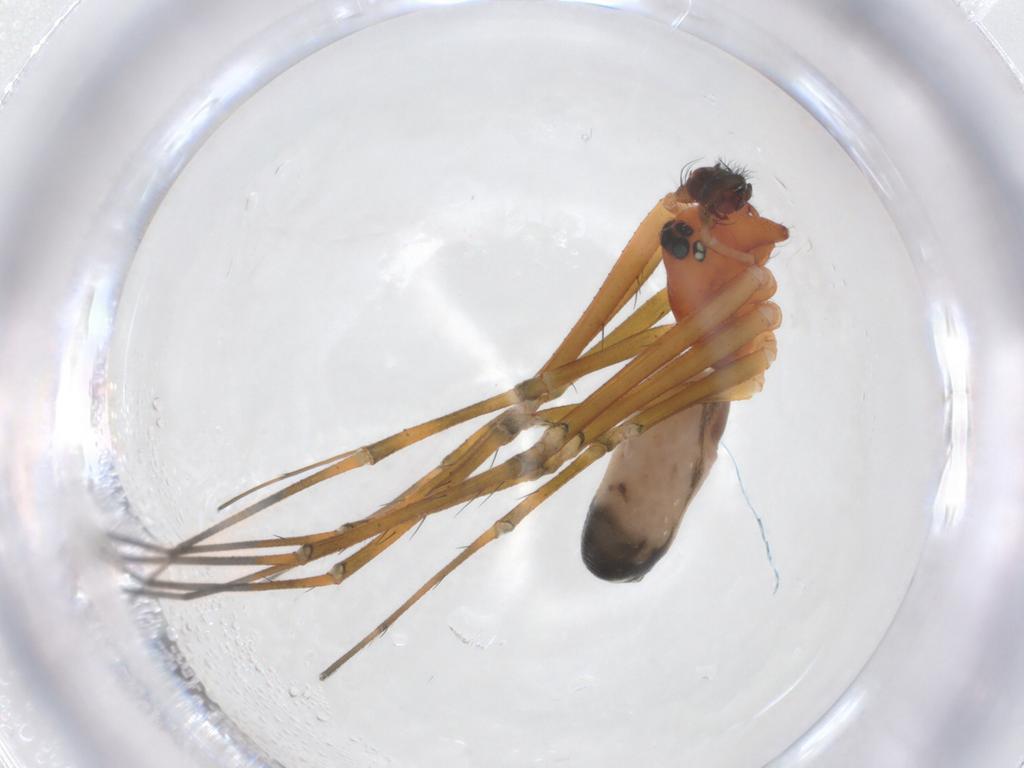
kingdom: Animalia
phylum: Arthropoda
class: Arachnida
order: Araneae
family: Linyphiidae
